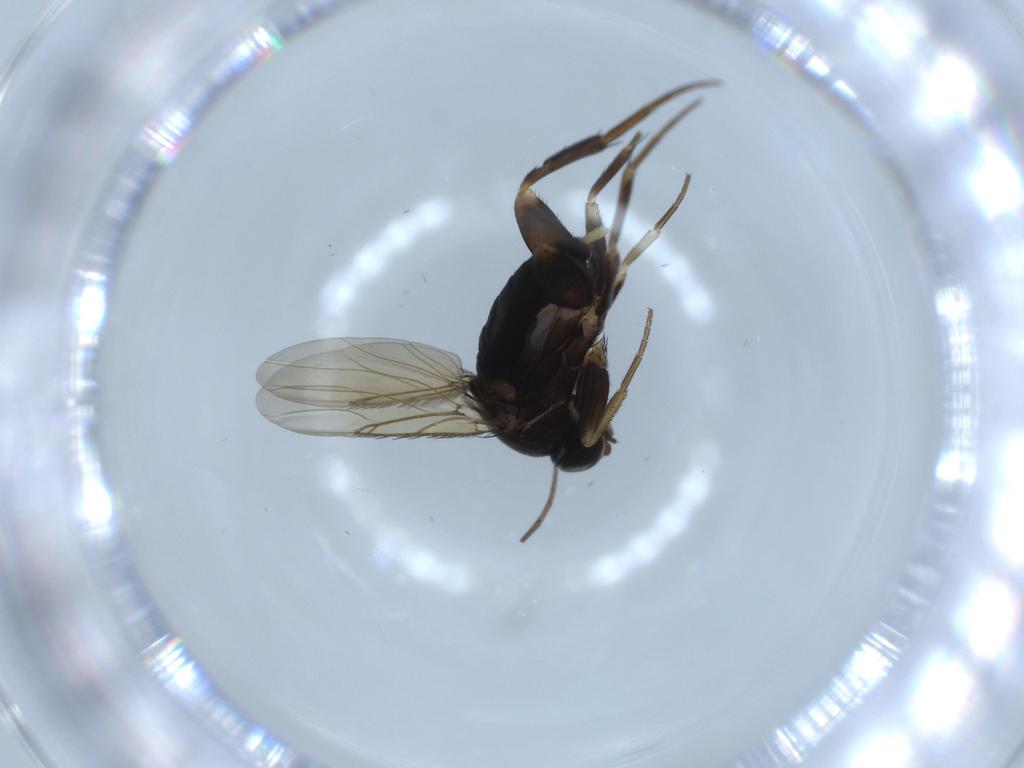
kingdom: Animalia
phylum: Arthropoda
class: Insecta
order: Diptera
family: Phoridae
